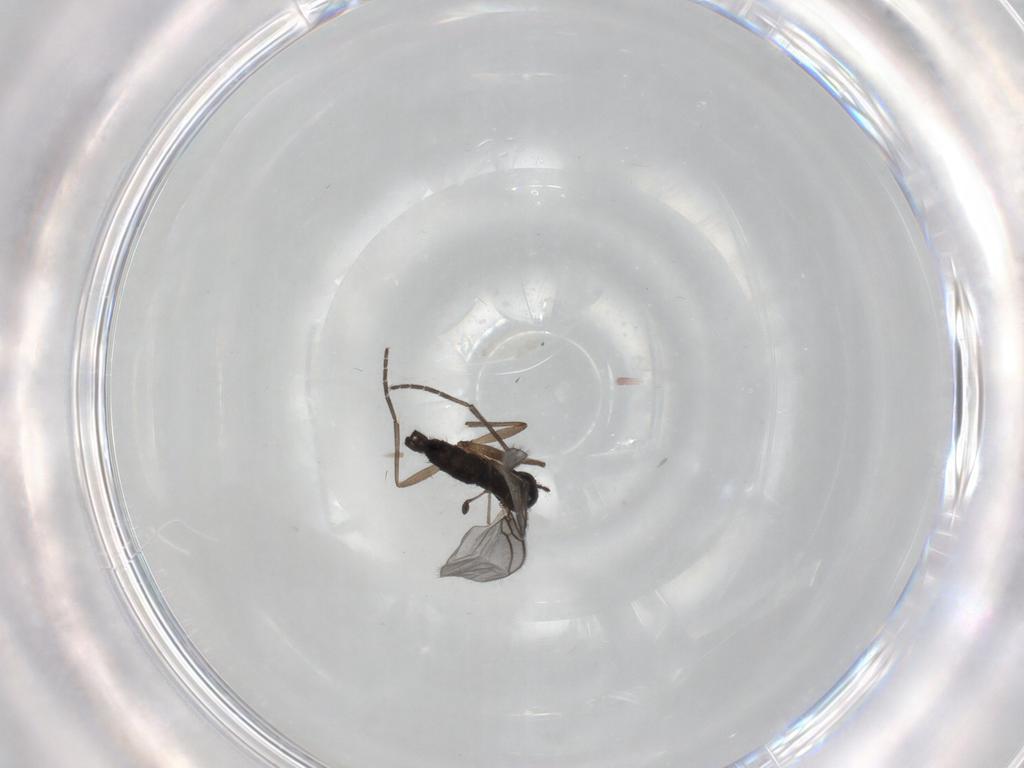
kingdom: Animalia
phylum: Arthropoda
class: Insecta
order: Diptera
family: Sciaridae
